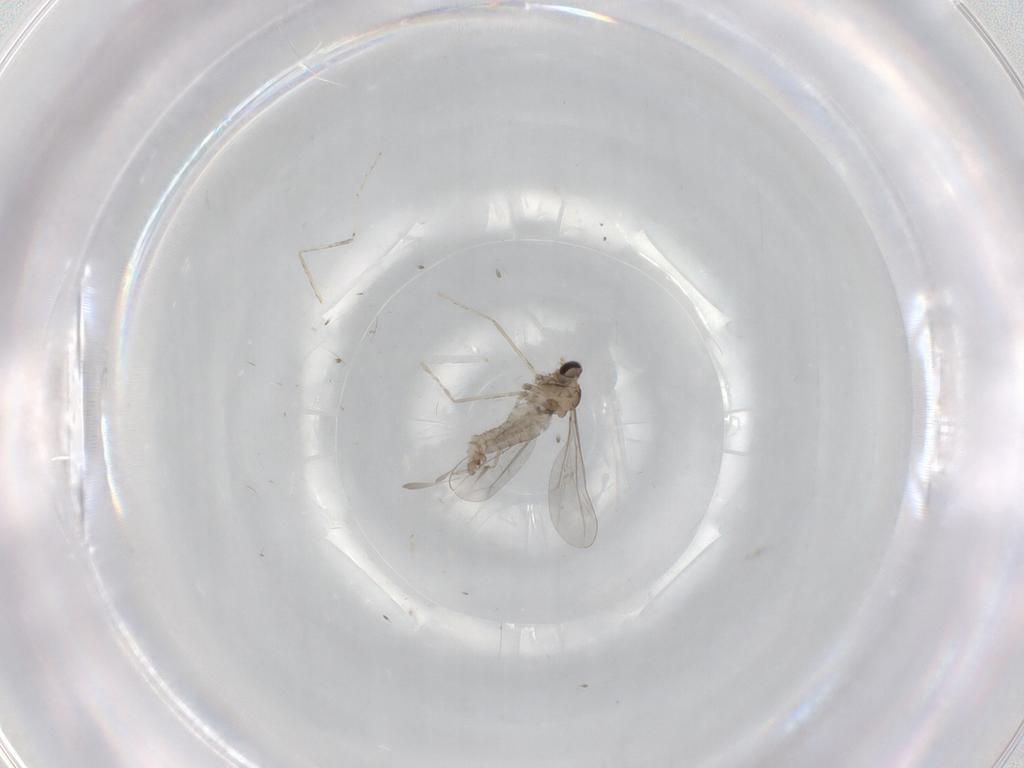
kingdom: Animalia
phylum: Arthropoda
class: Insecta
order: Diptera
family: Cecidomyiidae
